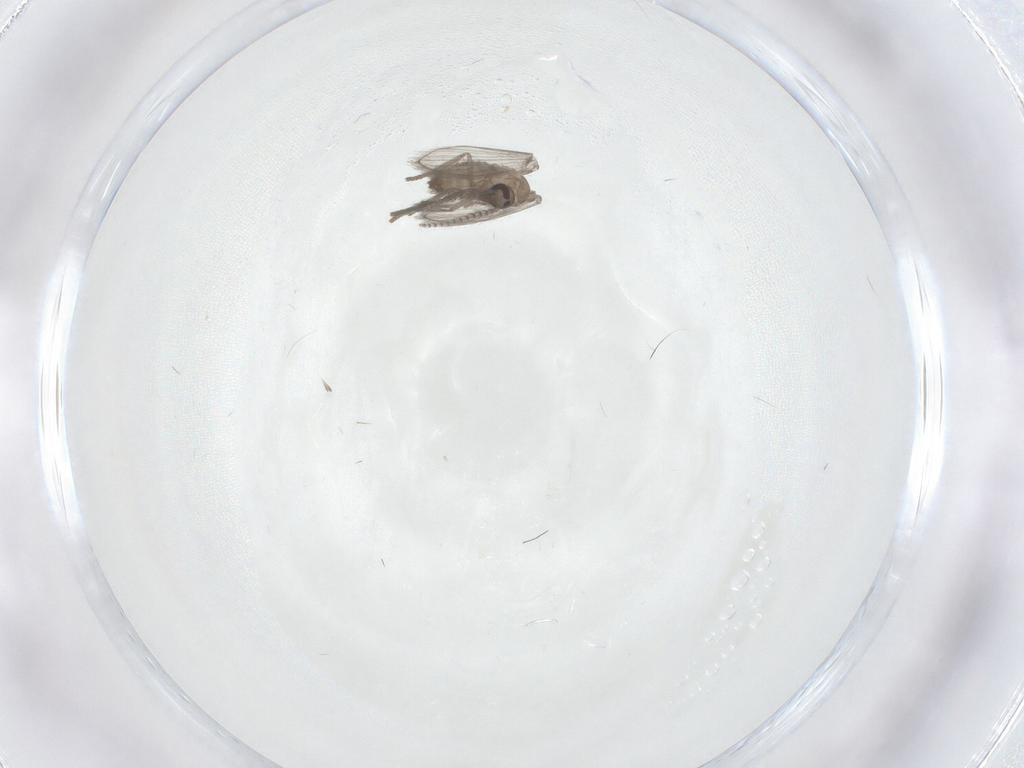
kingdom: Animalia
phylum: Arthropoda
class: Insecta
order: Diptera
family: Psychodidae
